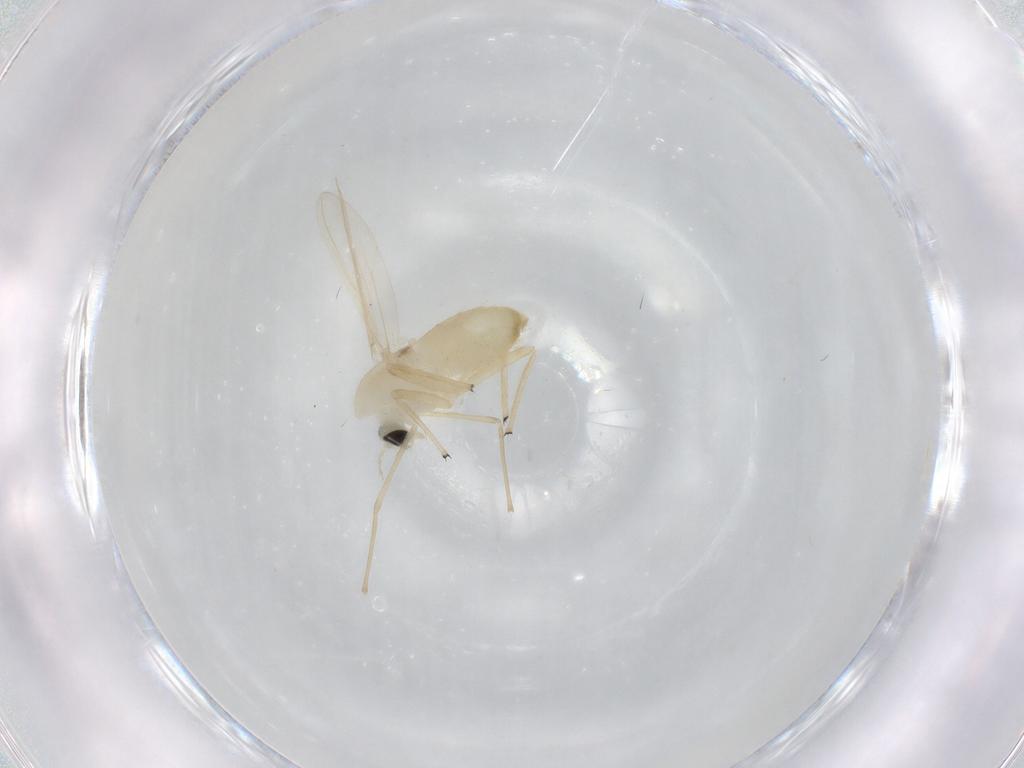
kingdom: Animalia
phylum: Arthropoda
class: Insecta
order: Diptera
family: Chironomidae
